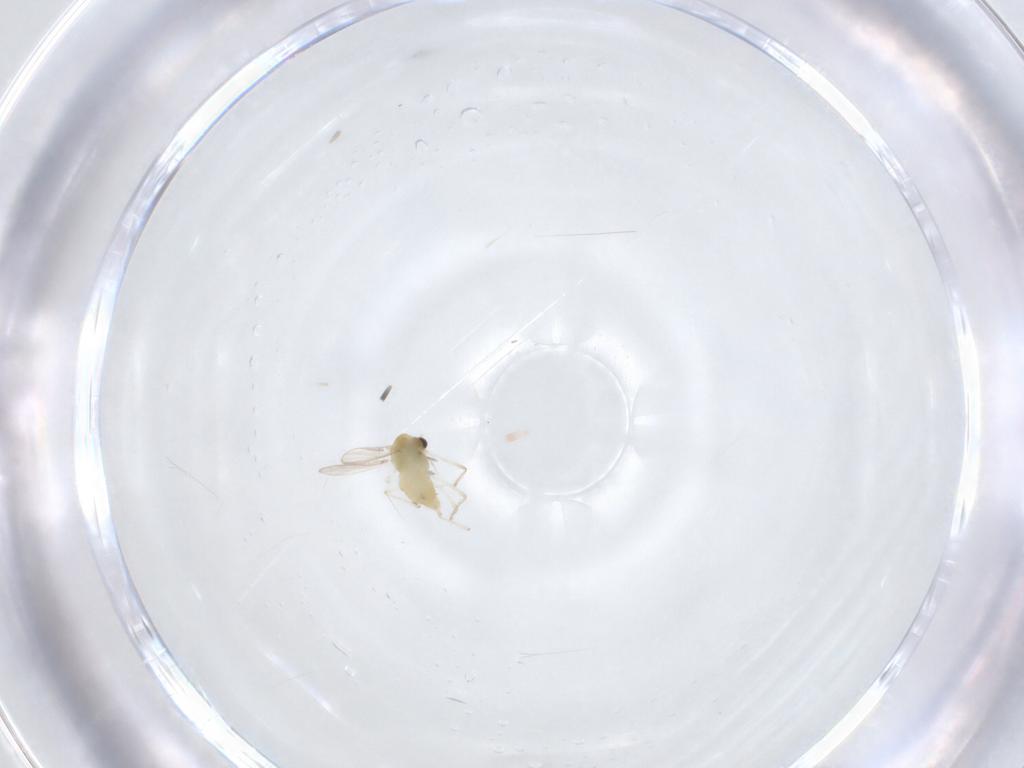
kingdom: Animalia
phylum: Arthropoda
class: Insecta
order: Diptera
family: Chironomidae
